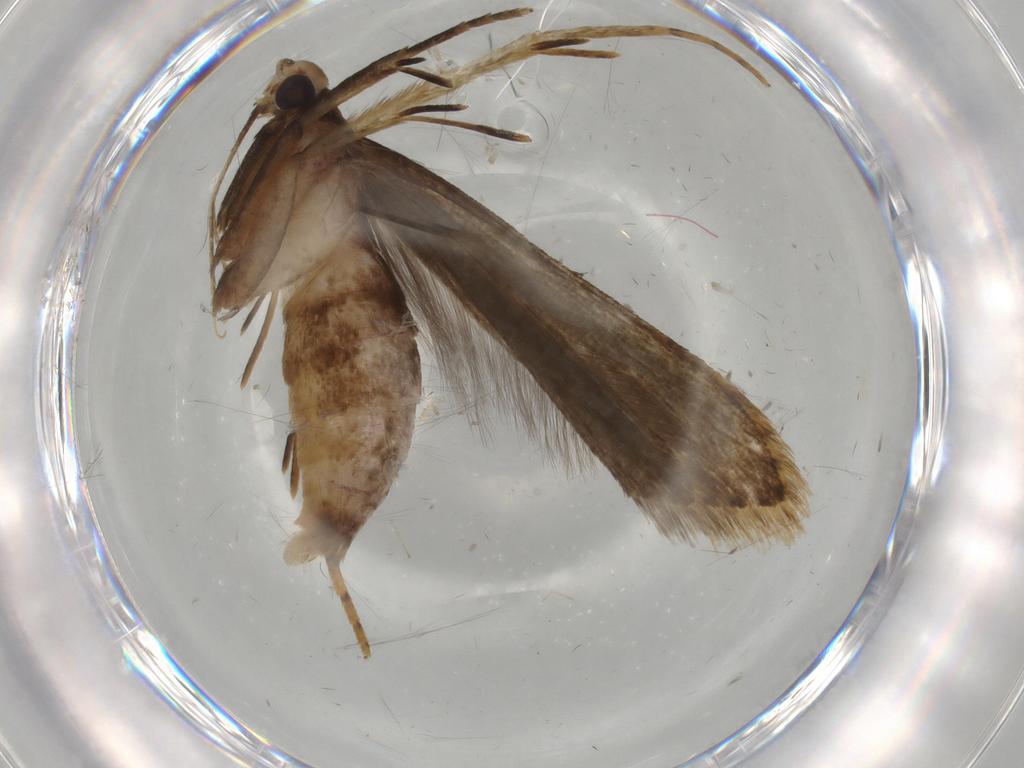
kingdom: Animalia
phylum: Arthropoda
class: Insecta
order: Lepidoptera
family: Gelechiidae
